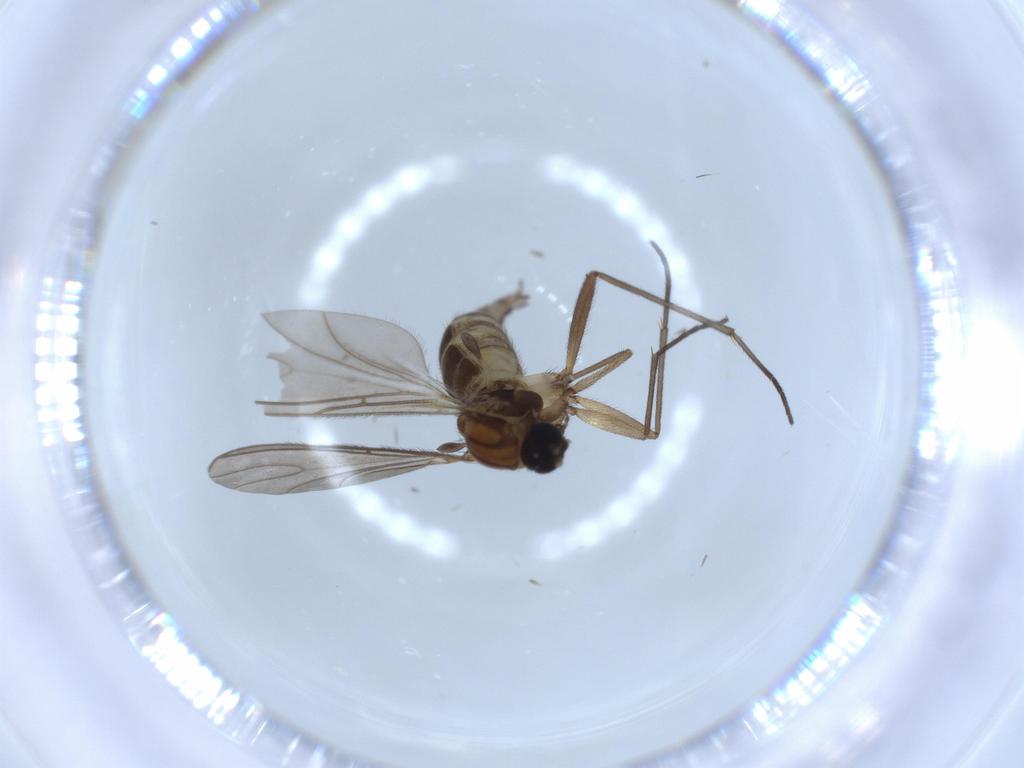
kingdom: Animalia
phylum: Arthropoda
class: Insecta
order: Diptera
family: Sciaridae
